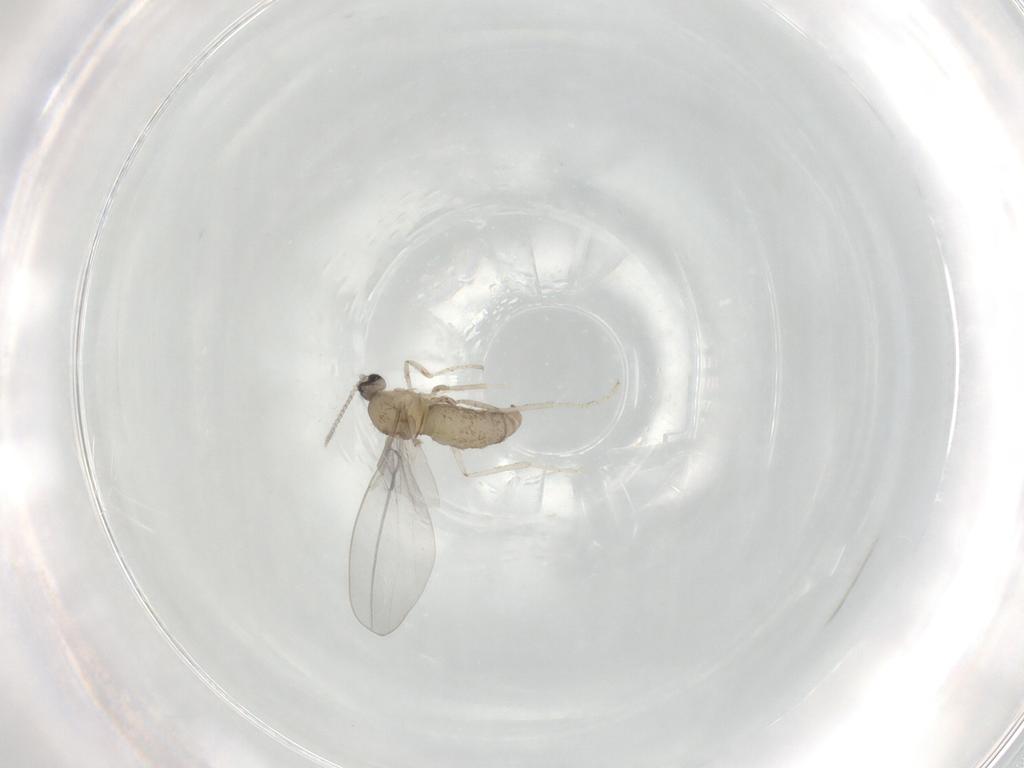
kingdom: Animalia
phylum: Arthropoda
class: Insecta
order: Diptera
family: Cecidomyiidae
